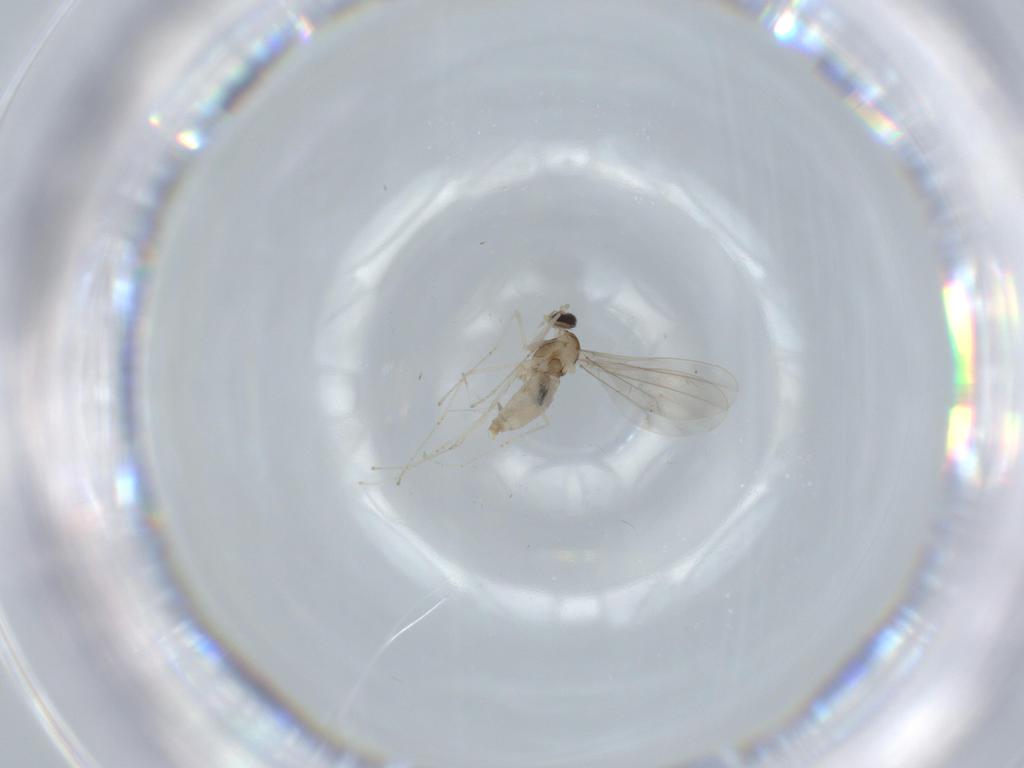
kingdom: Animalia
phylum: Arthropoda
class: Insecta
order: Diptera
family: Cecidomyiidae
